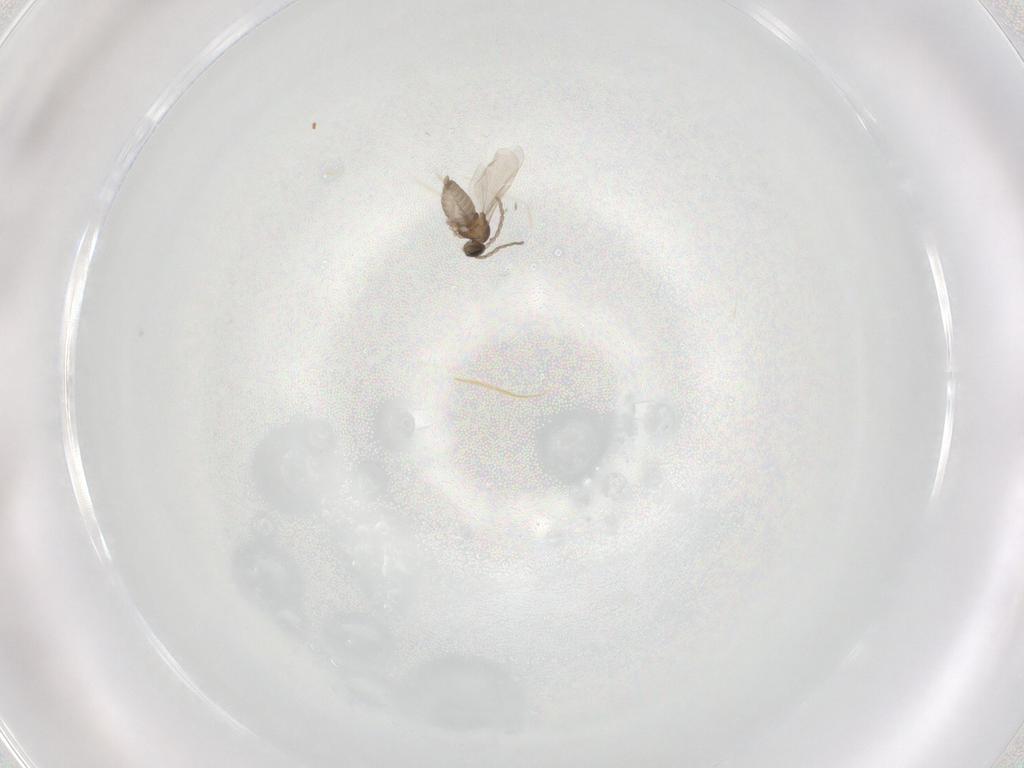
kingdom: Animalia
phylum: Arthropoda
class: Insecta
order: Diptera
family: Cecidomyiidae
